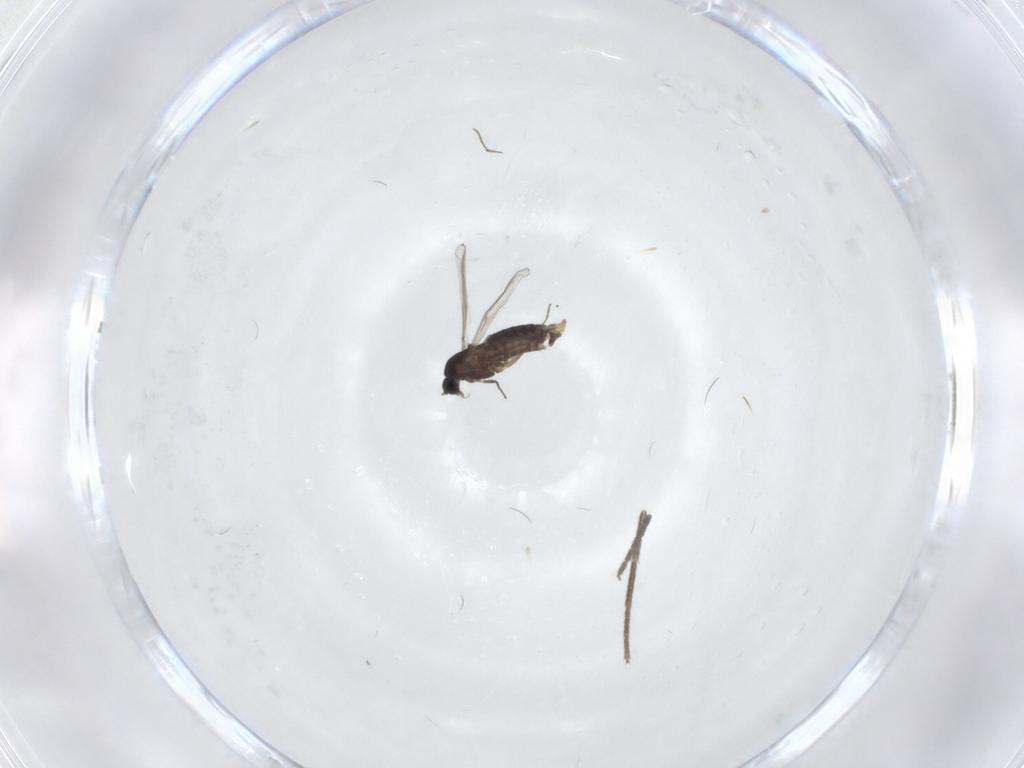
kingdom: Animalia
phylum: Arthropoda
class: Insecta
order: Diptera
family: Chironomidae
